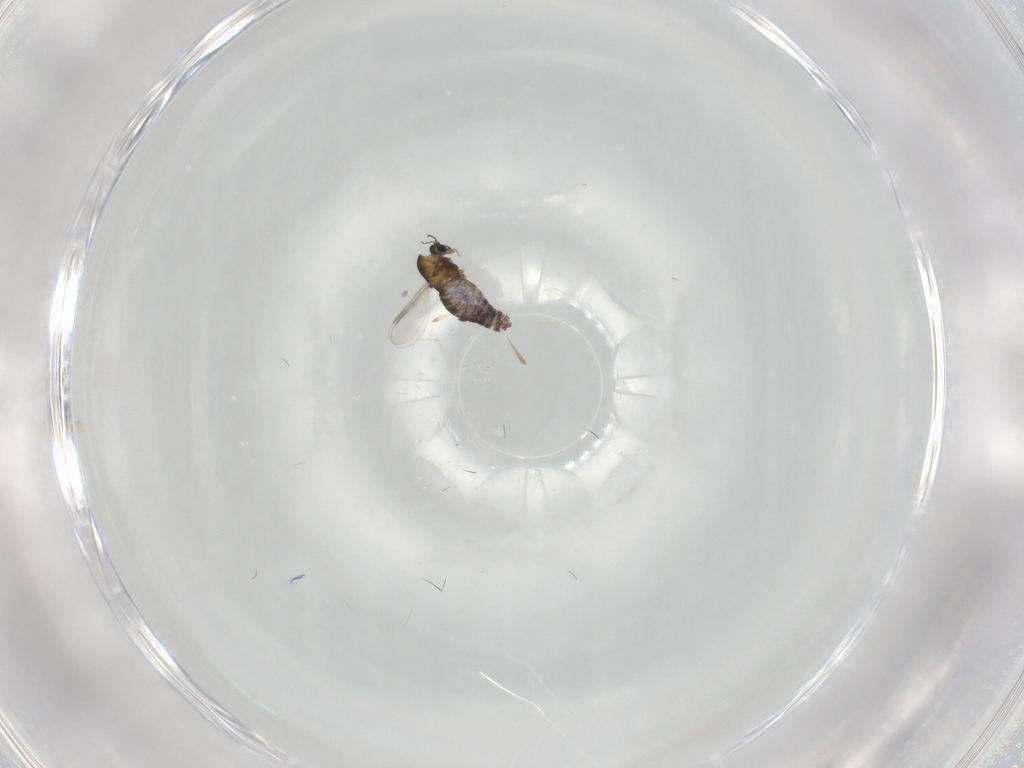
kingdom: Animalia
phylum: Arthropoda
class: Insecta
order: Diptera
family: Chironomidae
